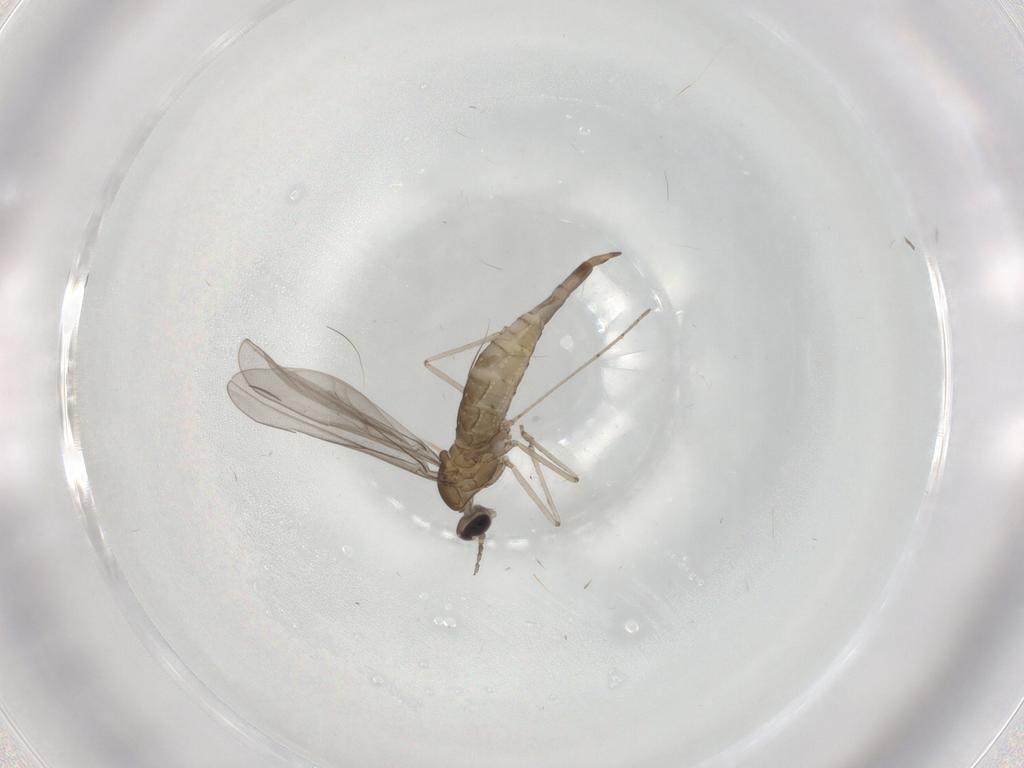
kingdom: Animalia
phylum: Arthropoda
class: Insecta
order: Diptera
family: Cecidomyiidae
